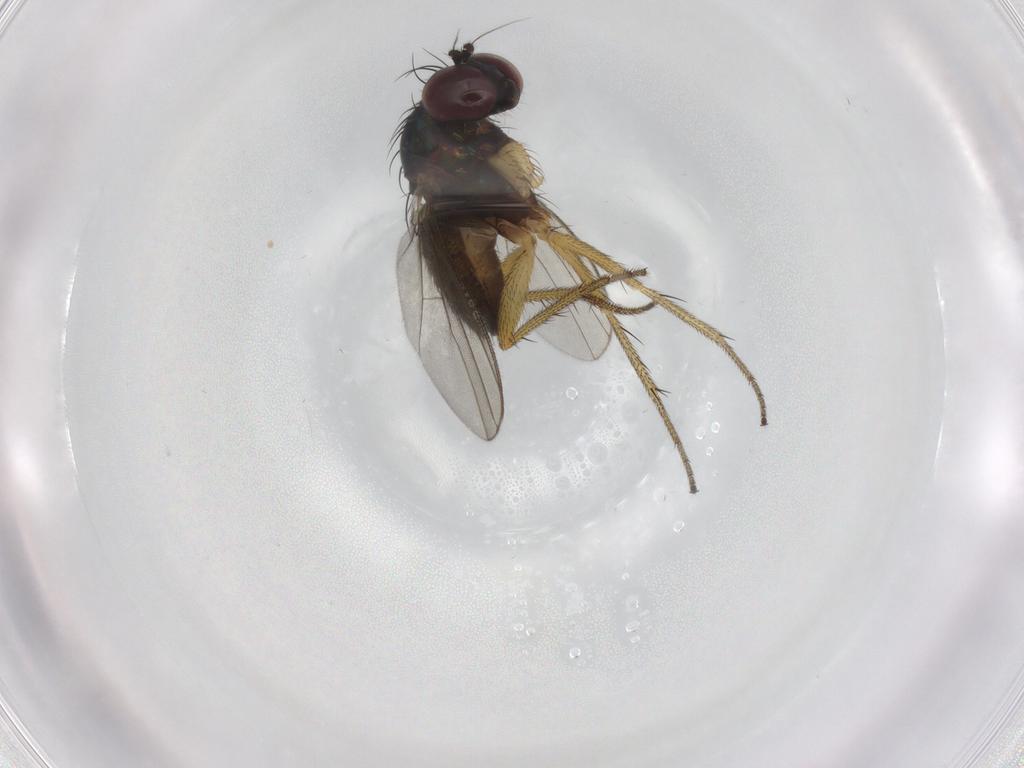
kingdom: Animalia
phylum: Arthropoda
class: Insecta
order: Diptera
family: Dolichopodidae
